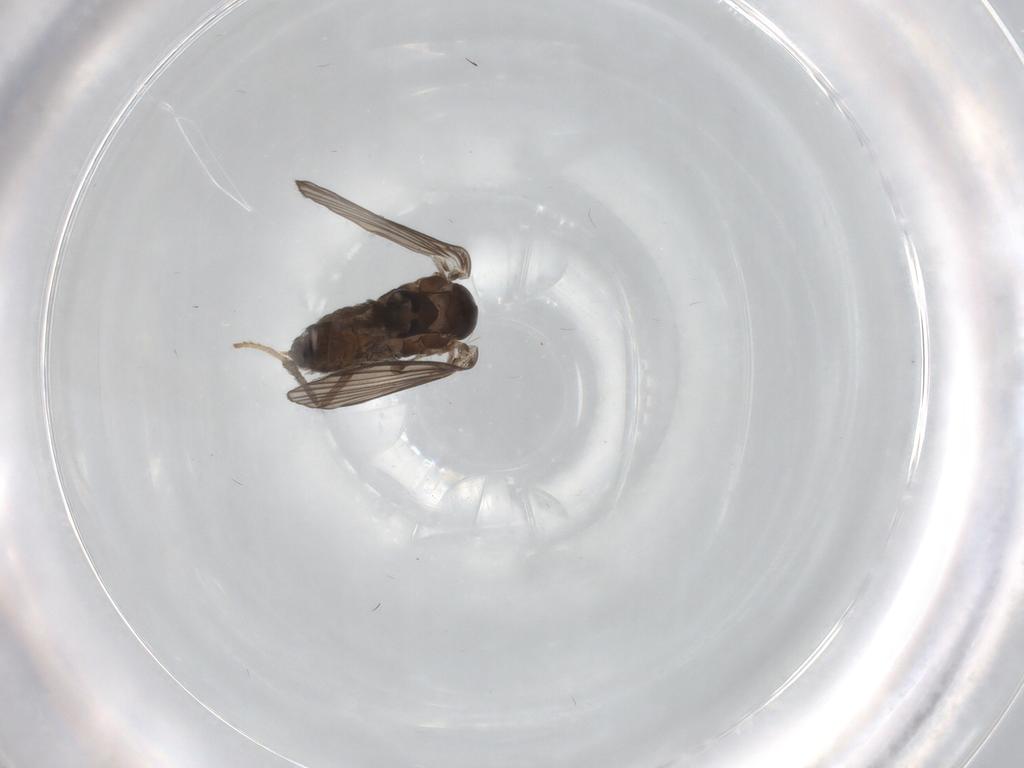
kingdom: Animalia
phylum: Arthropoda
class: Insecta
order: Diptera
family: Psychodidae
